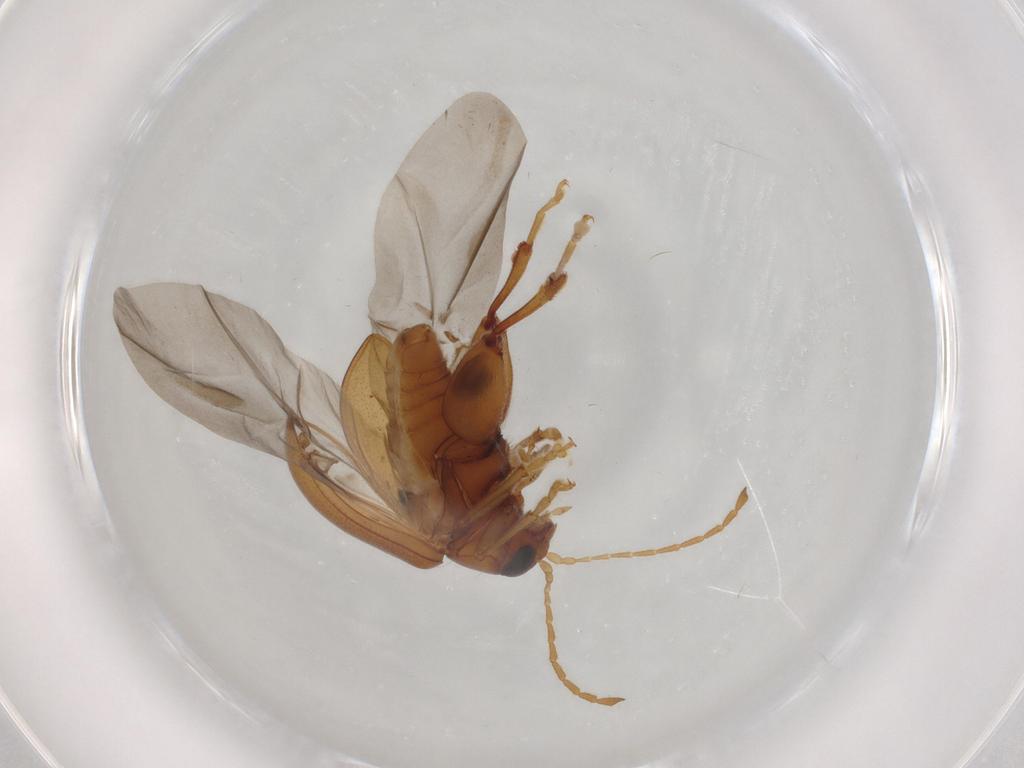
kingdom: Animalia
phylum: Arthropoda
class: Insecta
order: Coleoptera
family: Chrysomelidae
